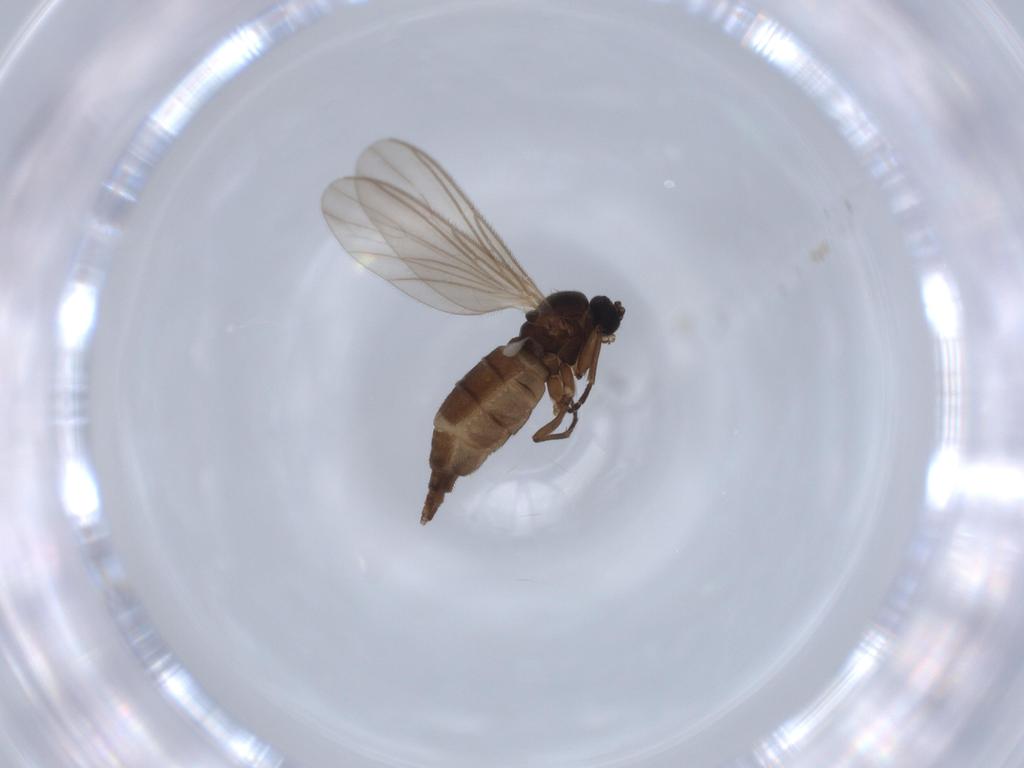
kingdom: Animalia
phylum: Arthropoda
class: Insecta
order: Diptera
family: Sciaridae
